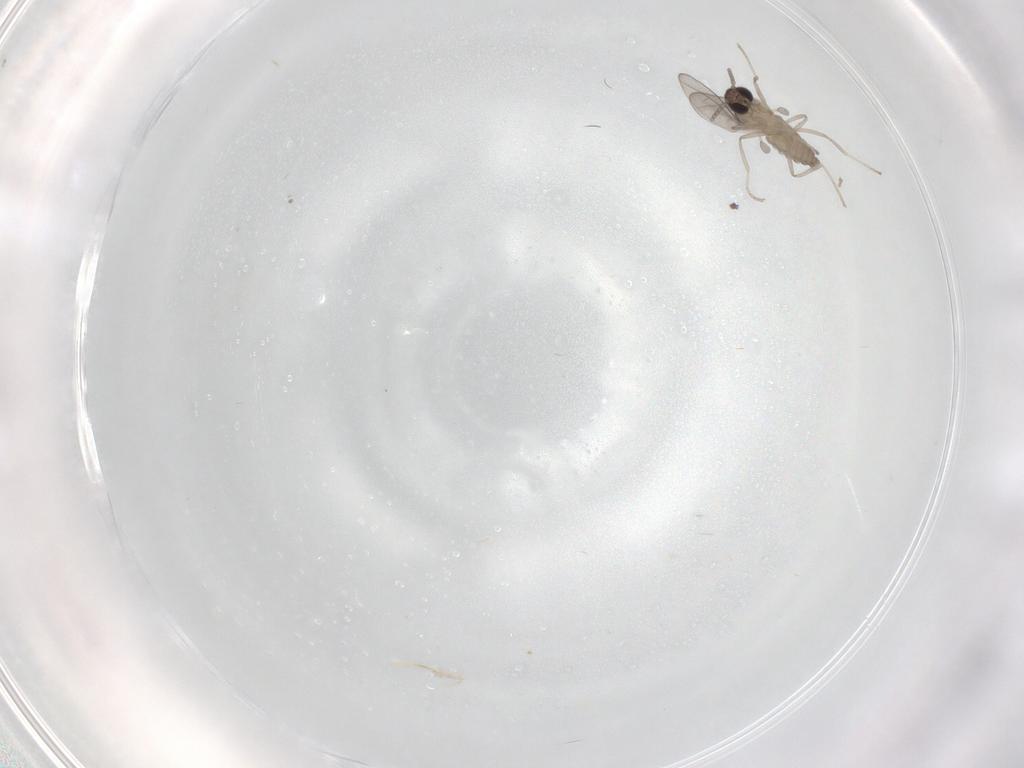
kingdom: Animalia
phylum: Arthropoda
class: Insecta
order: Diptera
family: Cecidomyiidae
